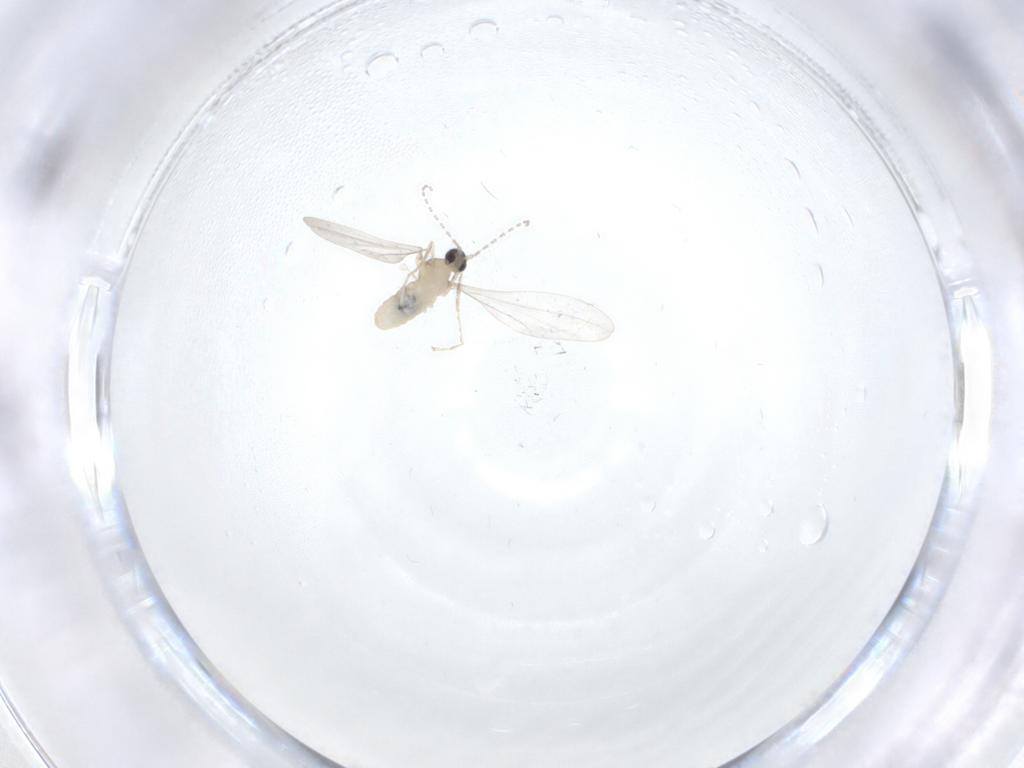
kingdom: Animalia
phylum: Arthropoda
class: Insecta
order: Diptera
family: Cecidomyiidae
